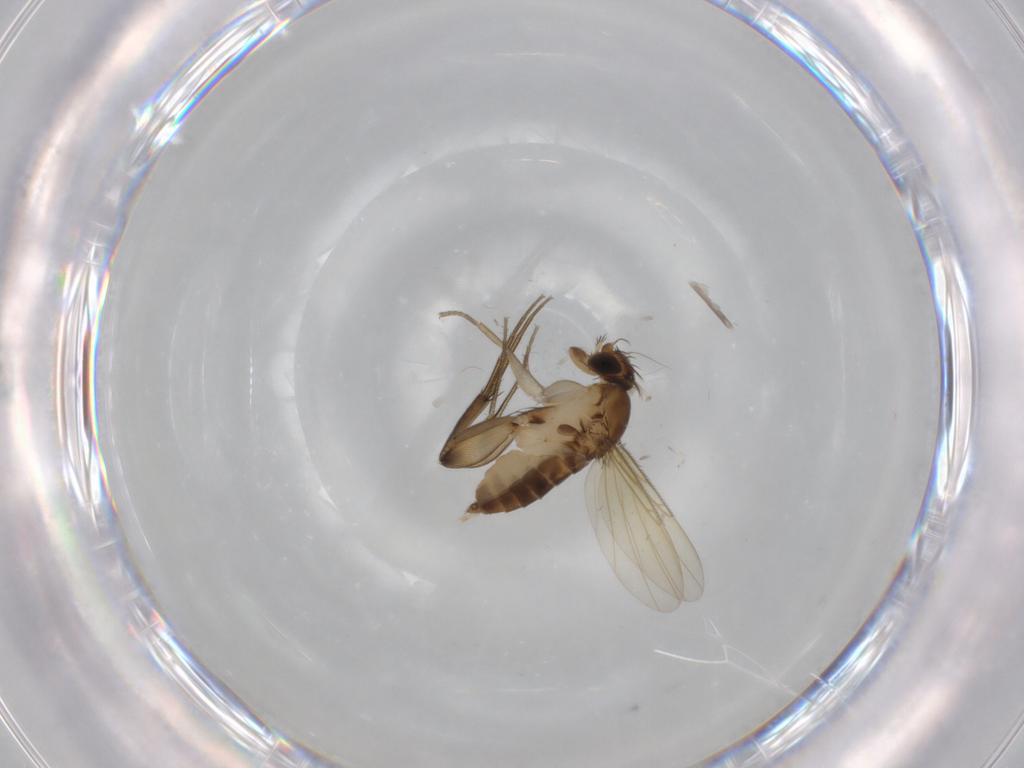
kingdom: Animalia
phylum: Arthropoda
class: Insecta
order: Diptera
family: Phoridae
